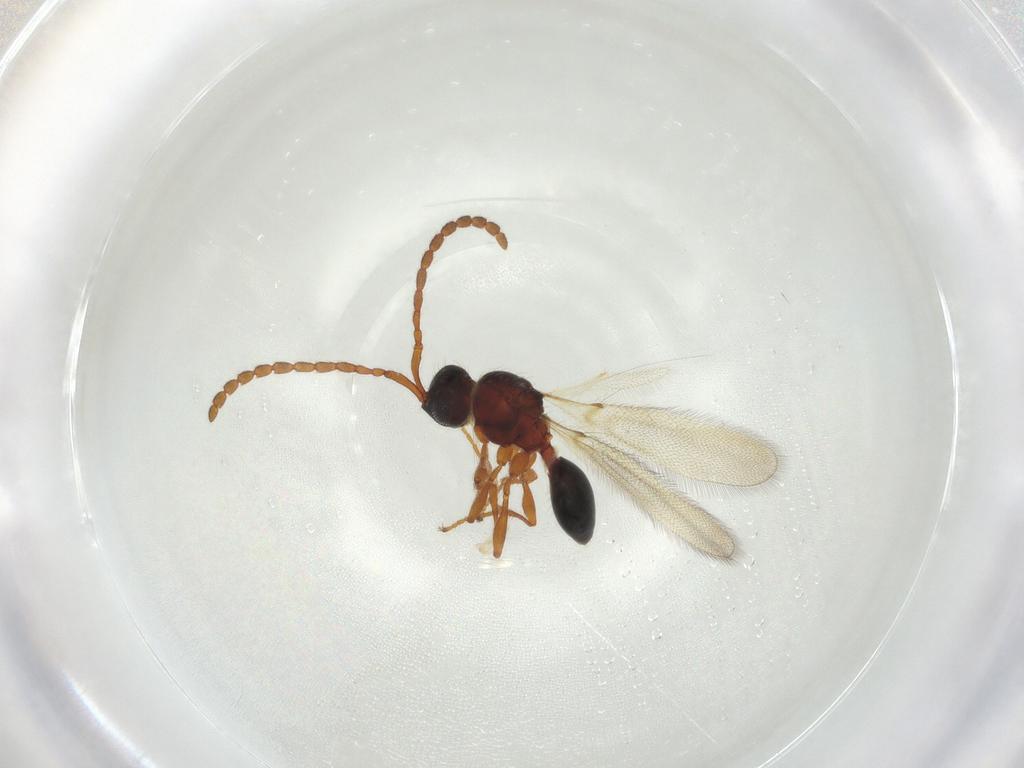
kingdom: Animalia
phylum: Arthropoda
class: Insecta
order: Hymenoptera
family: Diapriidae
